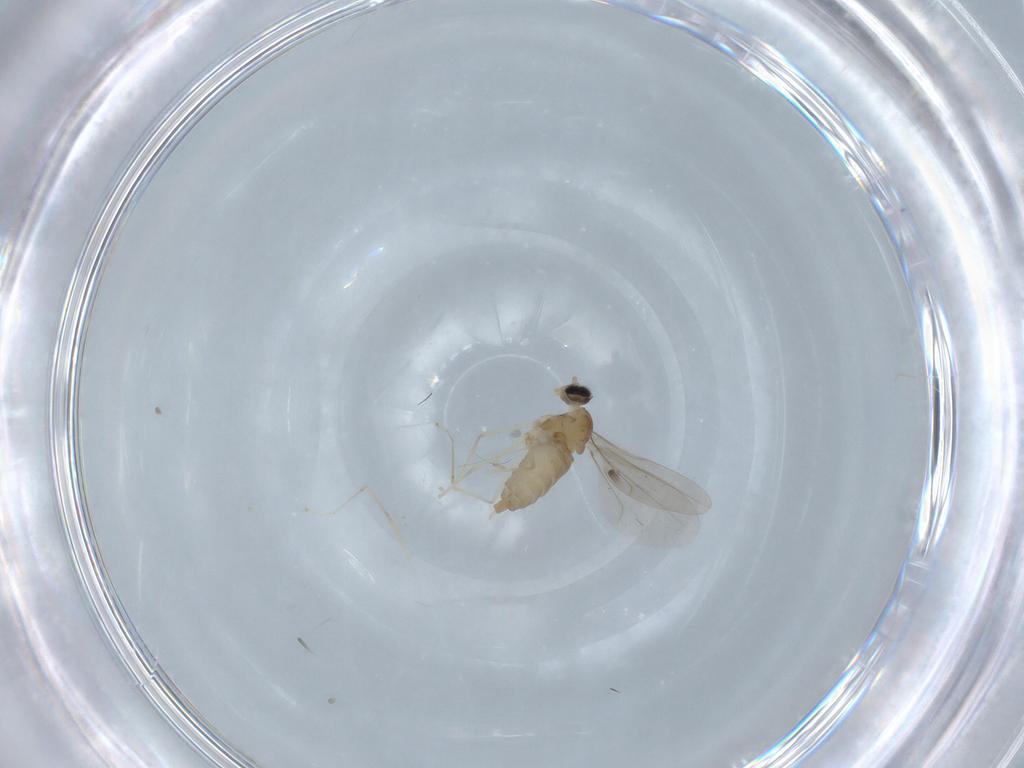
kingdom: Animalia
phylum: Arthropoda
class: Insecta
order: Diptera
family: Cecidomyiidae
